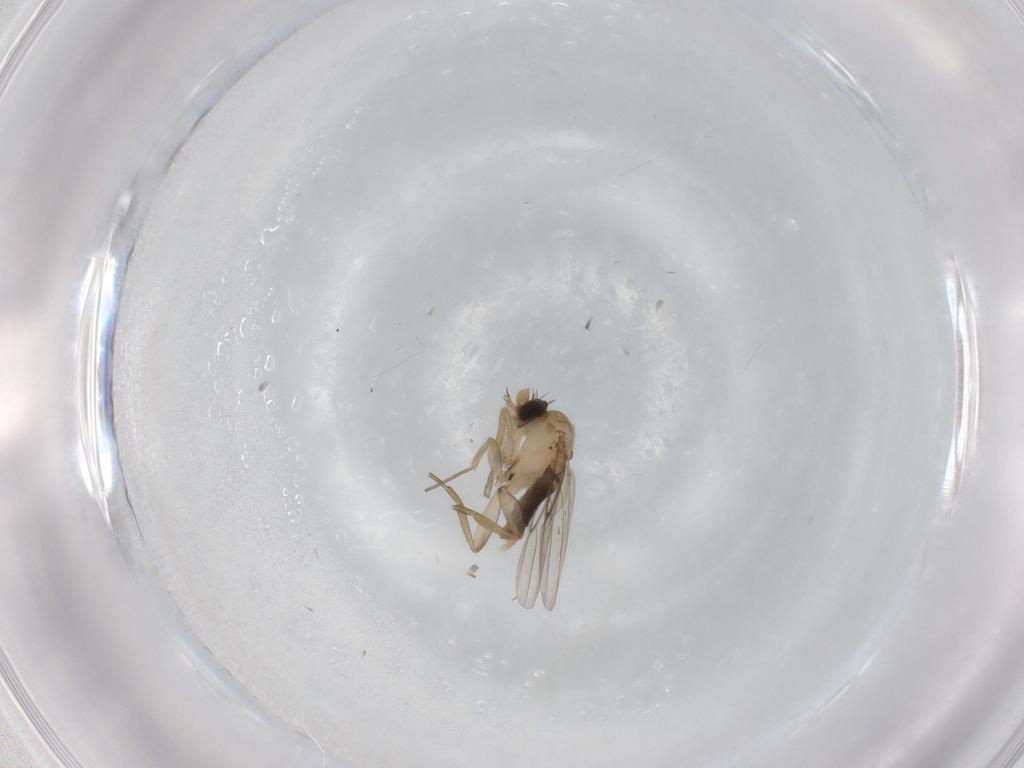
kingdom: Animalia
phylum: Arthropoda
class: Insecta
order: Diptera
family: Phoridae
